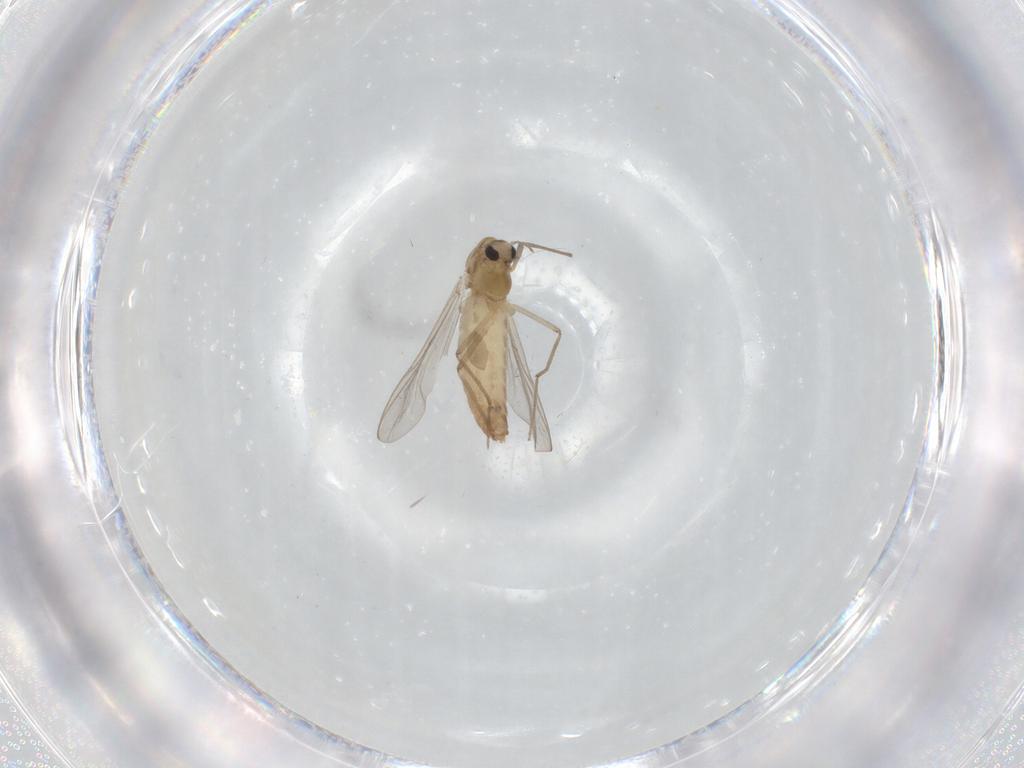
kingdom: Animalia
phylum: Arthropoda
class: Insecta
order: Diptera
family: Chironomidae
